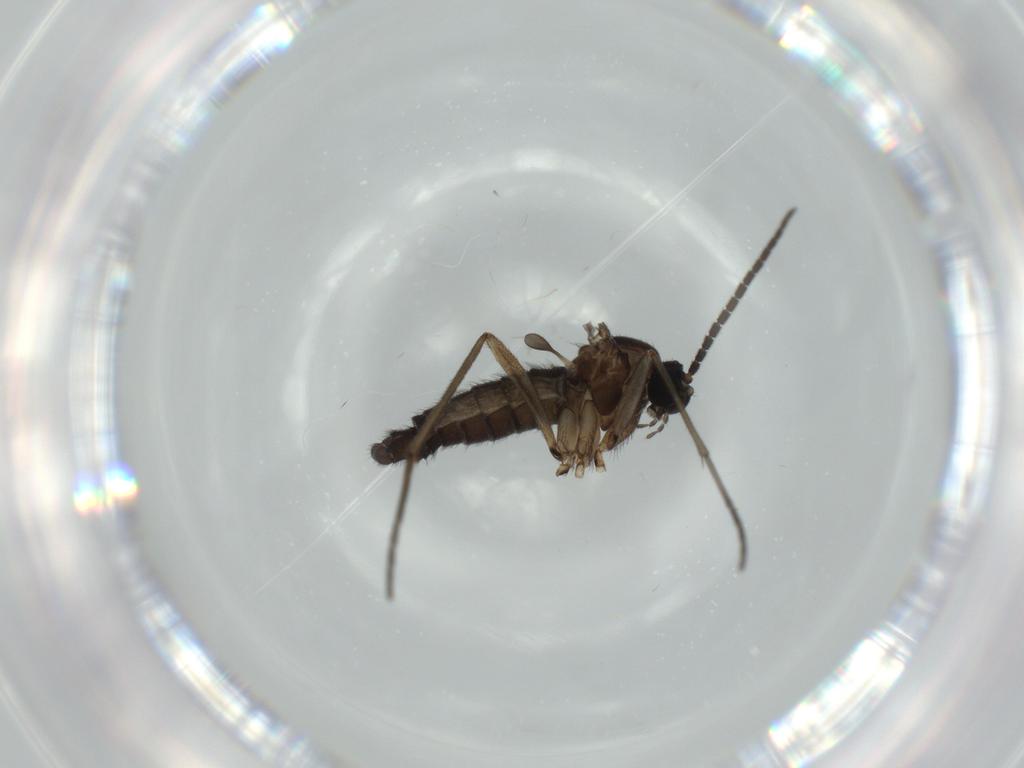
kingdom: Animalia
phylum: Arthropoda
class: Insecta
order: Diptera
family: Sciaridae
